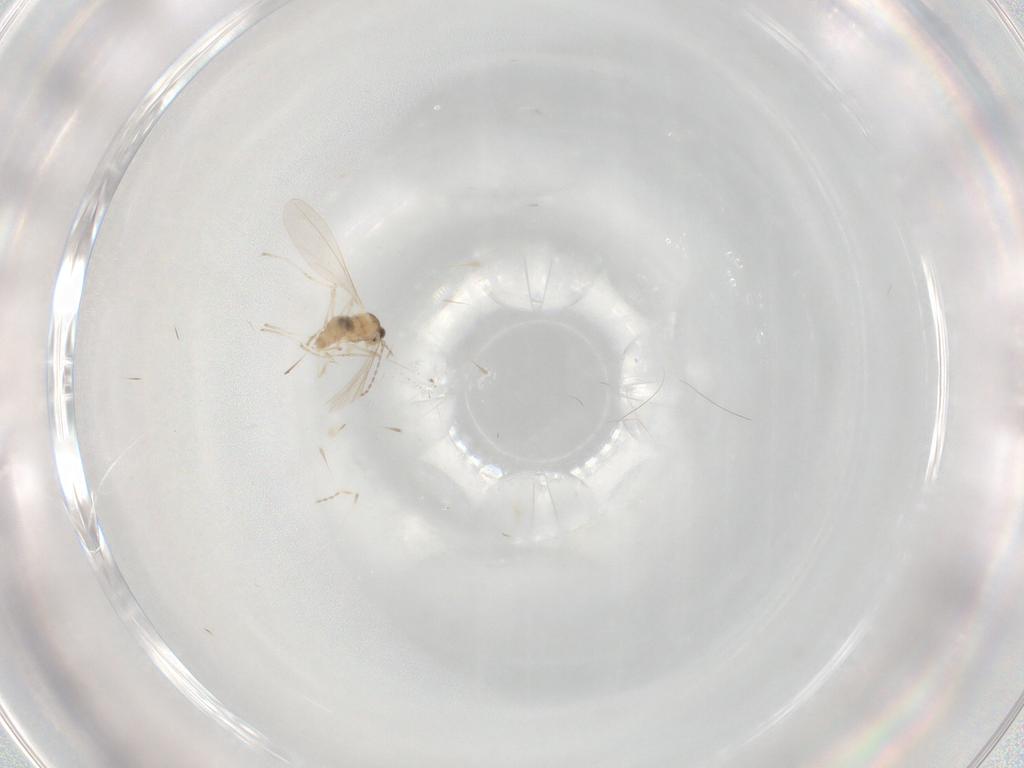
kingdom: Animalia
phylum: Arthropoda
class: Insecta
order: Diptera
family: Cecidomyiidae
